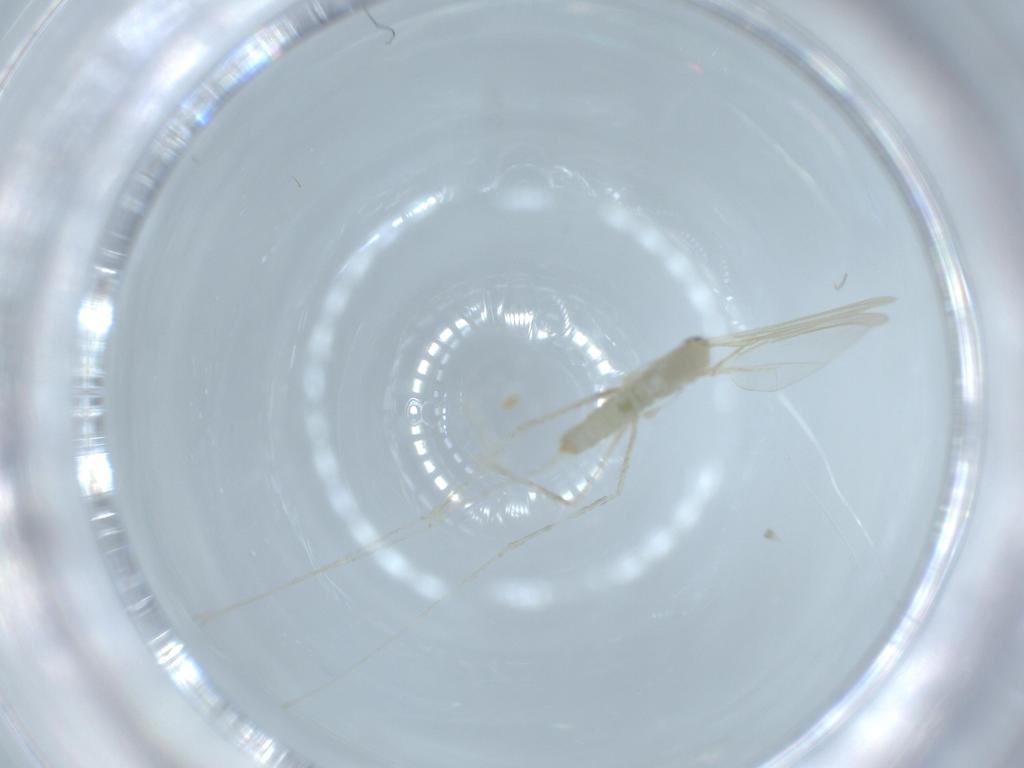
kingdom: Animalia
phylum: Arthropoda
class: Insecta
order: Diptera
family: Cecidomyiidae
